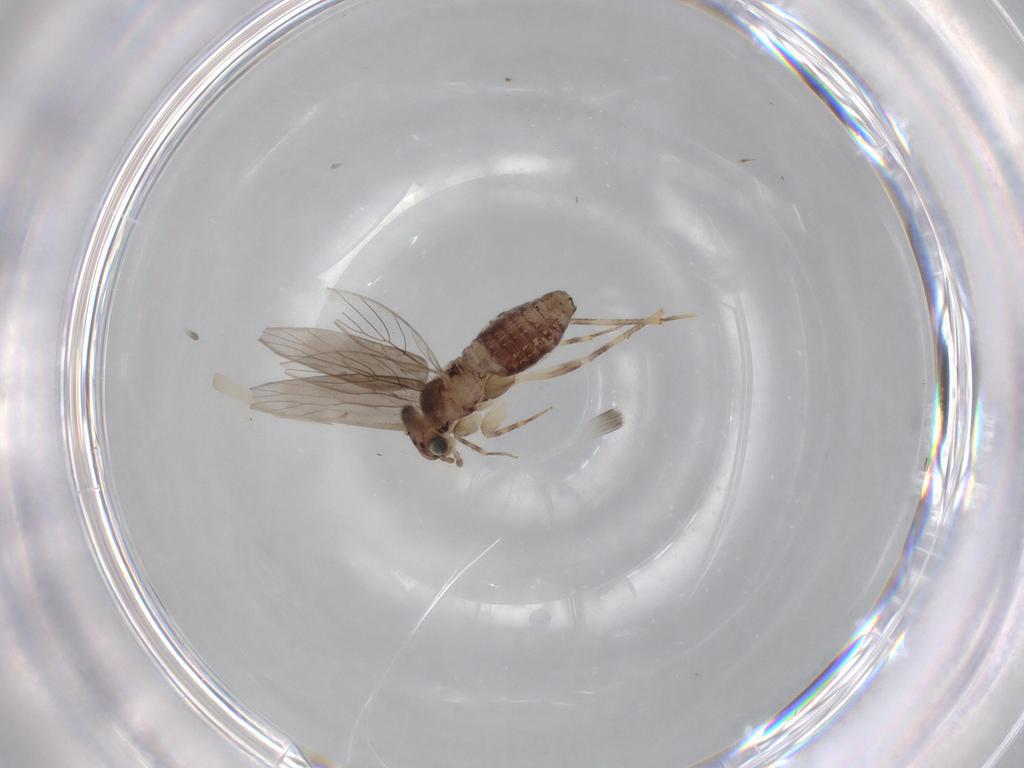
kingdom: Animalia
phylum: Arthropoda
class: Insecta
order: Psocodea
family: Lepidopsocidae
